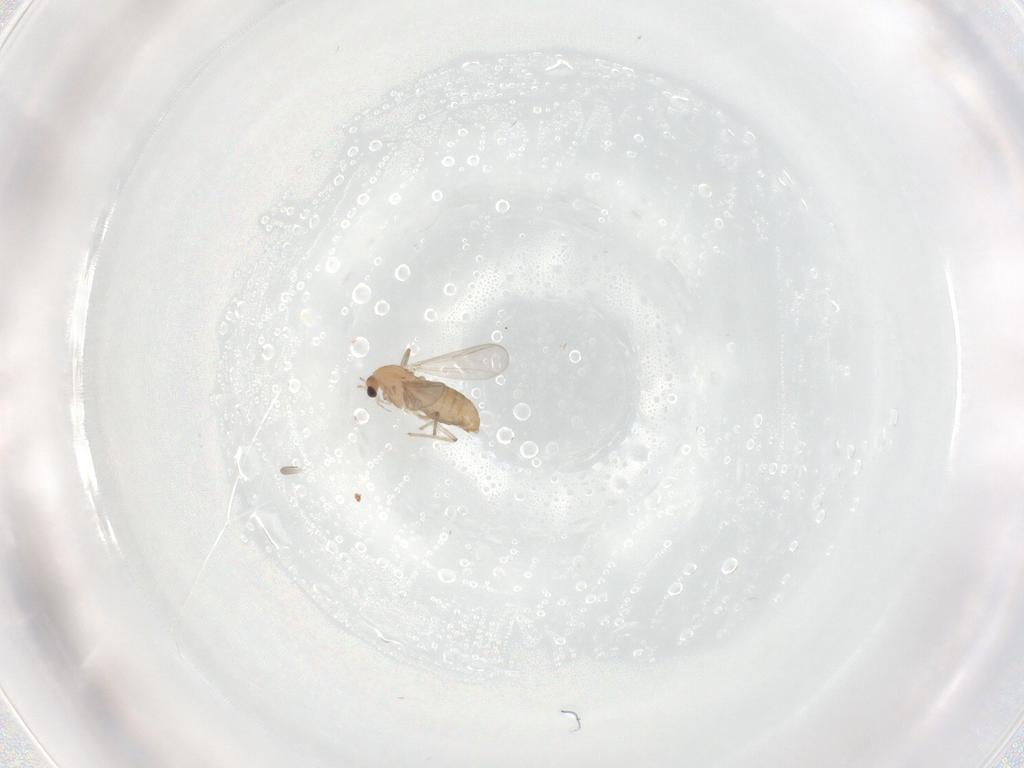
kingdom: Animalia
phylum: Arthropoda
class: Insecta
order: Diptera
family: Chironomidae
